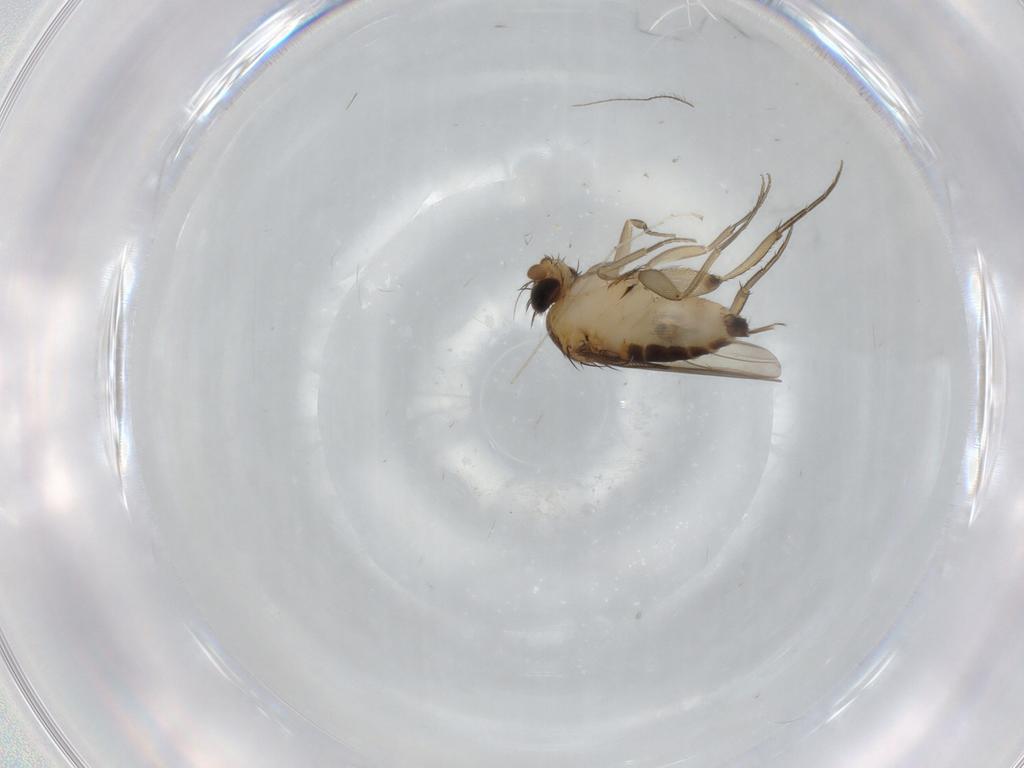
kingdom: Animalia
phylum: Arthropoda
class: Insecta
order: Diptera
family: Phoridae
